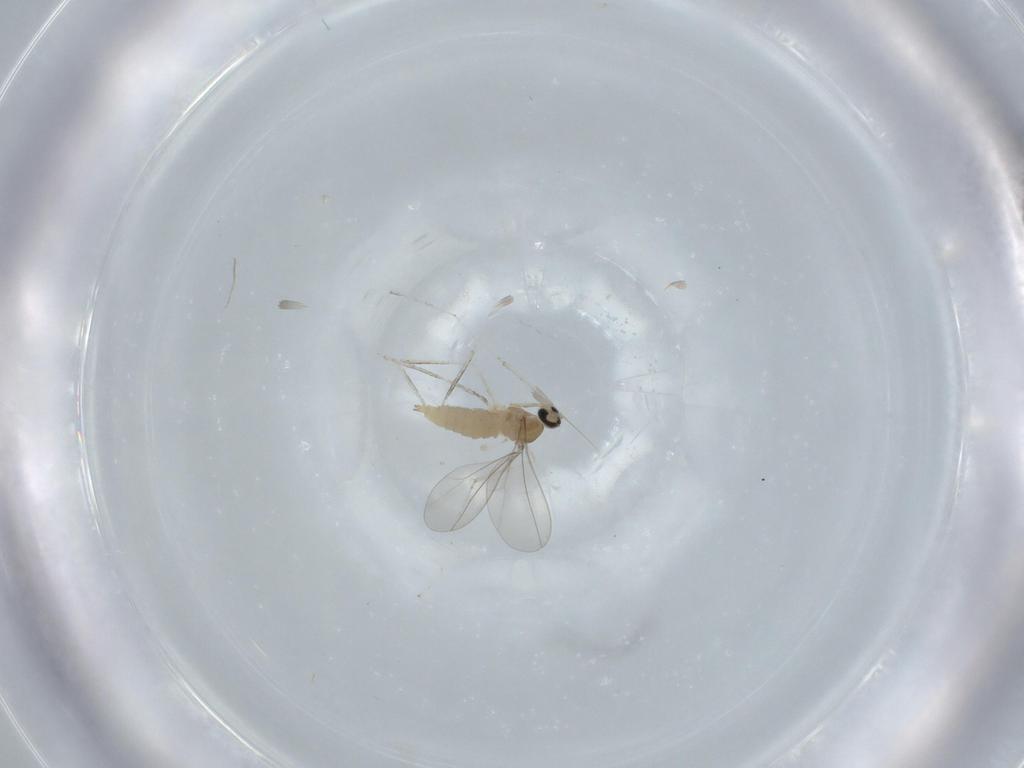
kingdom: Animalia
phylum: Arthropoda
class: Insecta
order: Diptera
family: Cecidomyiidae
